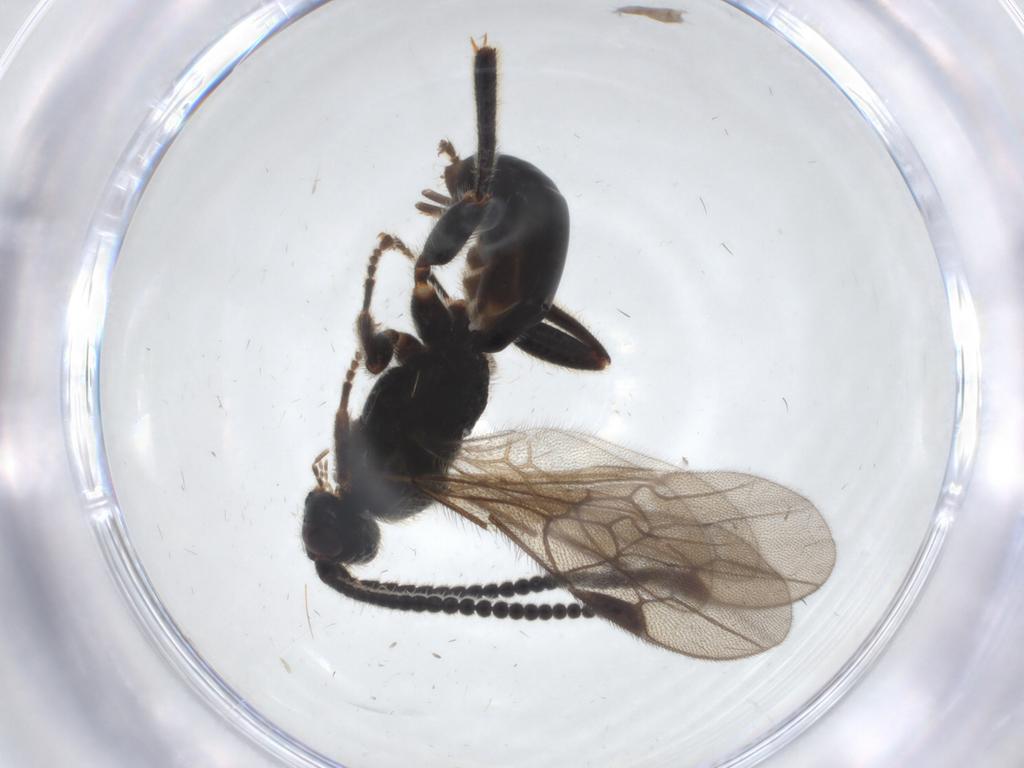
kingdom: Animalia
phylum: Arthropoda
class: Insecta
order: Hymenoptera
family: Braconidae
